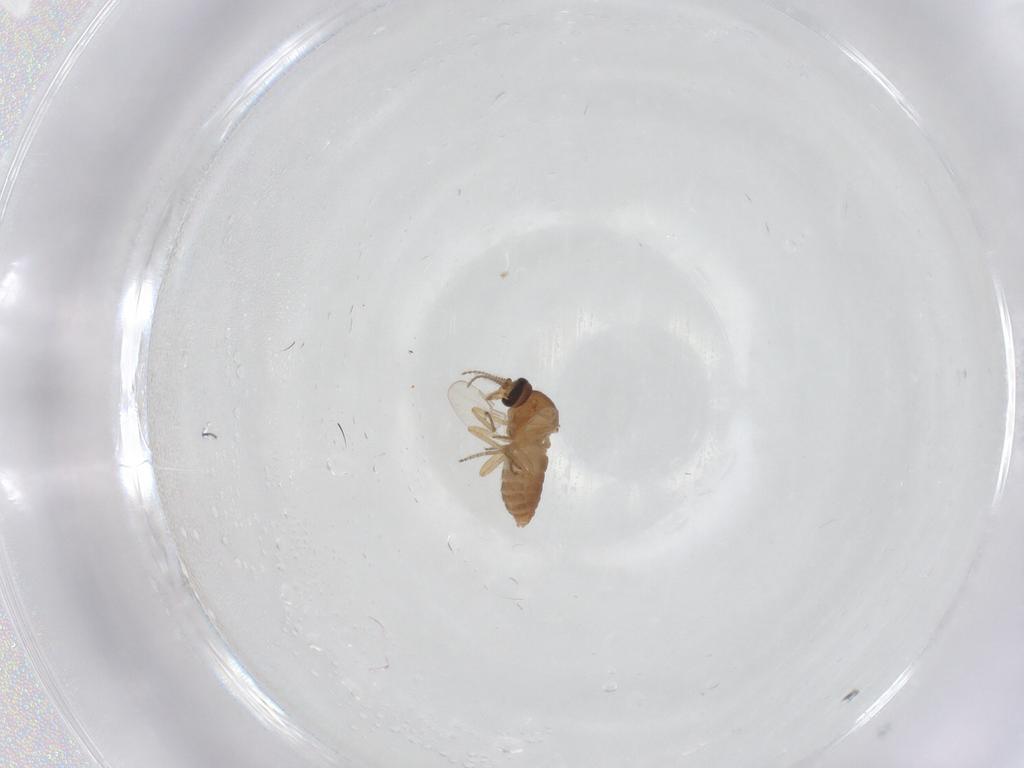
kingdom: Animalia
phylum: Arthropoda
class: Insecta
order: Diptera
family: Ceratopogonidae
